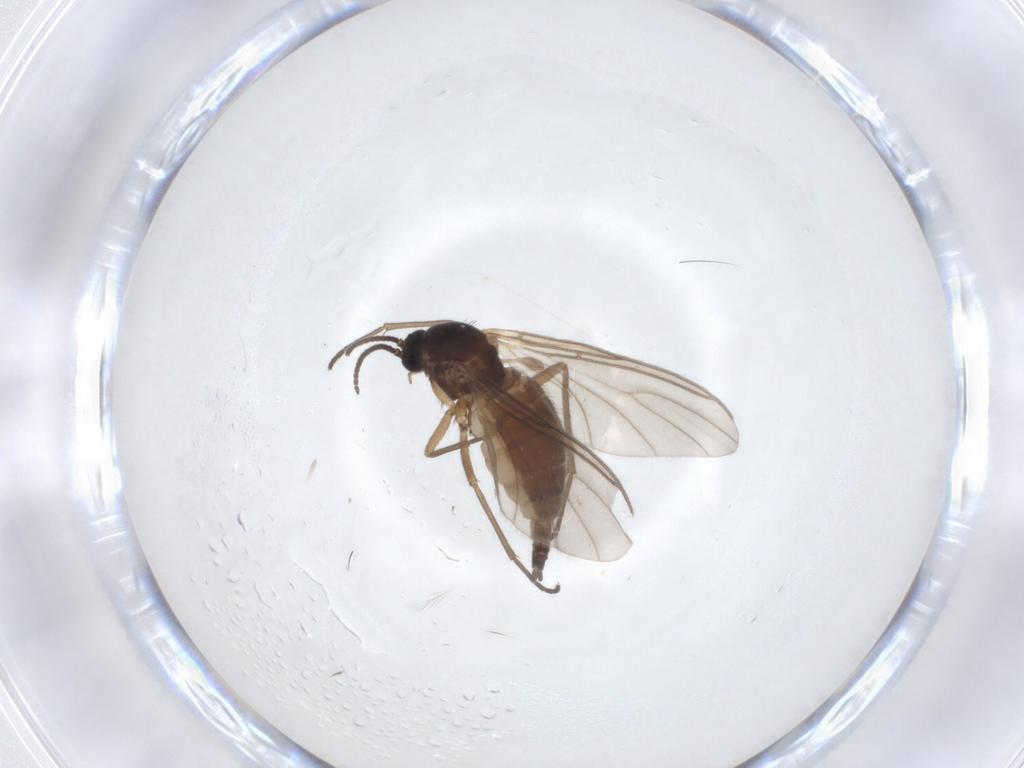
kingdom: Animalia
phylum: Arthropoda
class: Insecta
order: Diptera
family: Sciaridae
